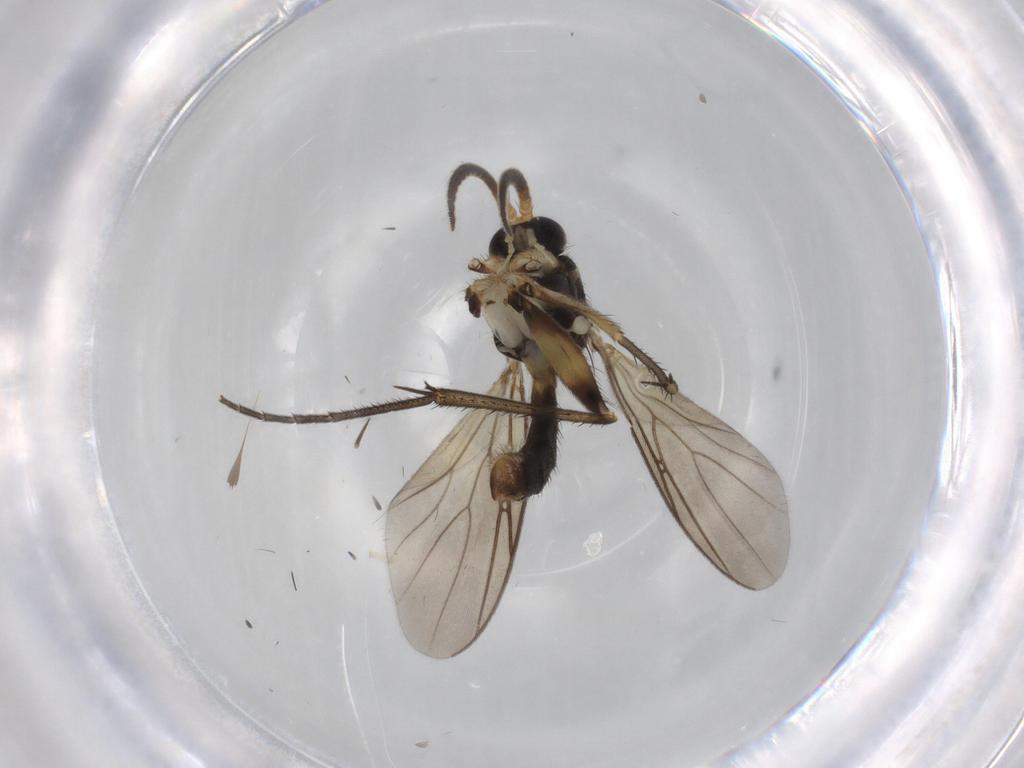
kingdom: Animalia
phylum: Arthropoda
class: Insecta
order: Diptera
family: Chironomidae
